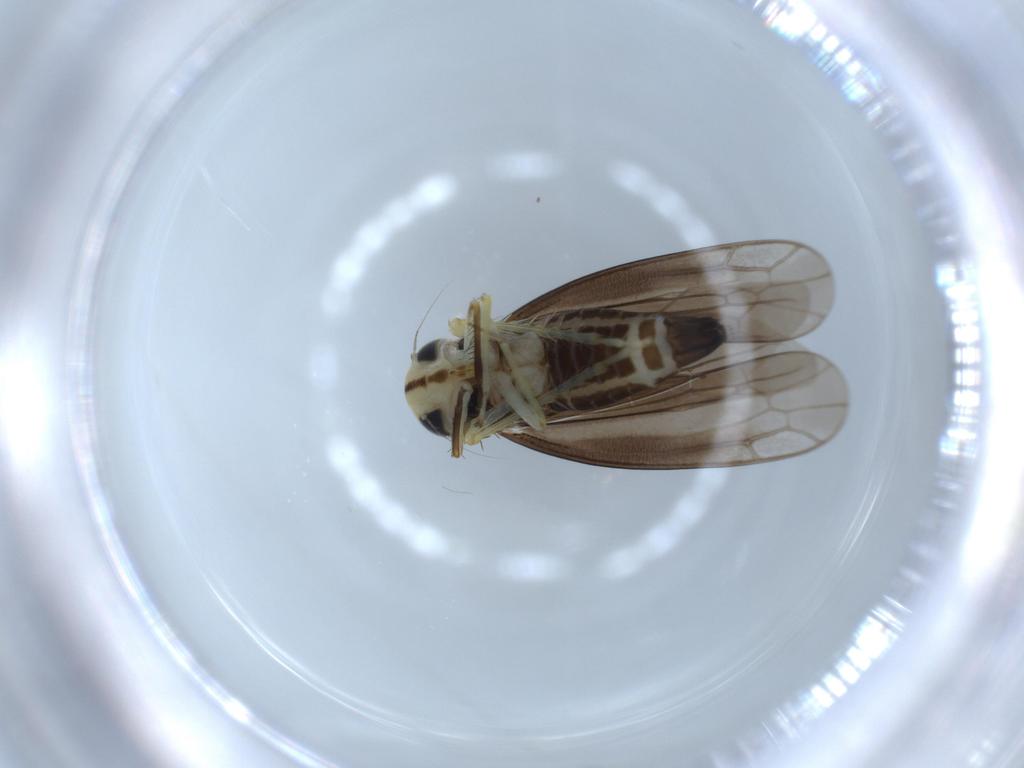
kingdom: Animalia
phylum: Arthropoda
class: Insecta
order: Hemiptera
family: Cicadellidae
